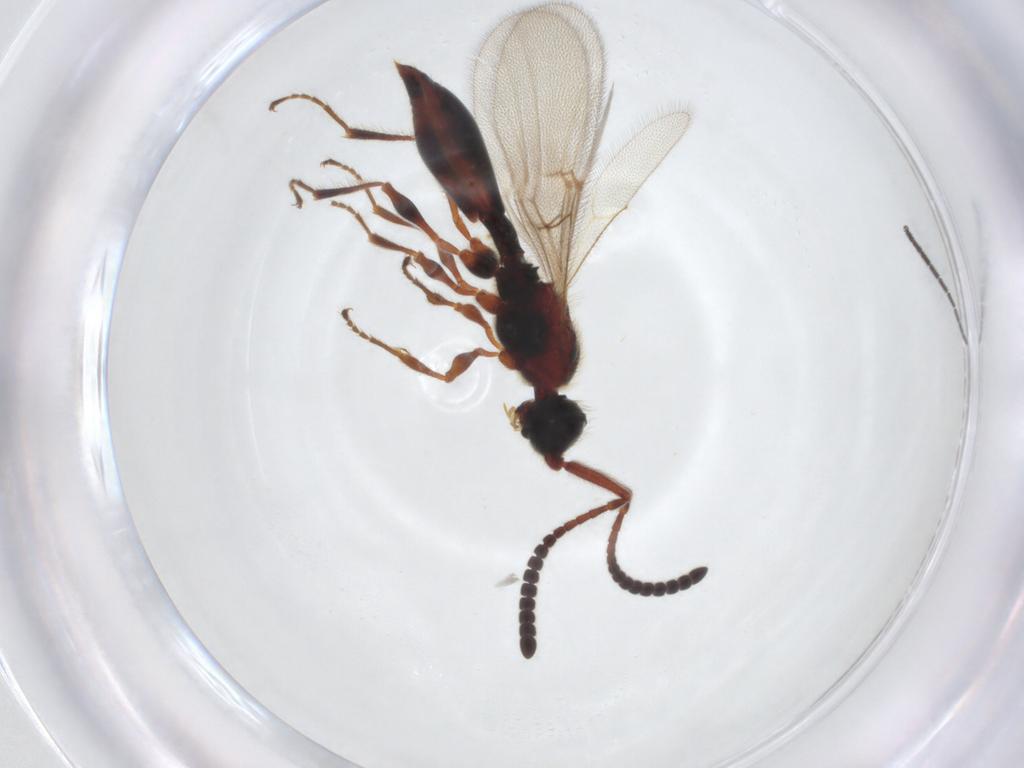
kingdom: Animalia
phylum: Arthropoda
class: Insecta
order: Hymenoptera
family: Diapriidae
